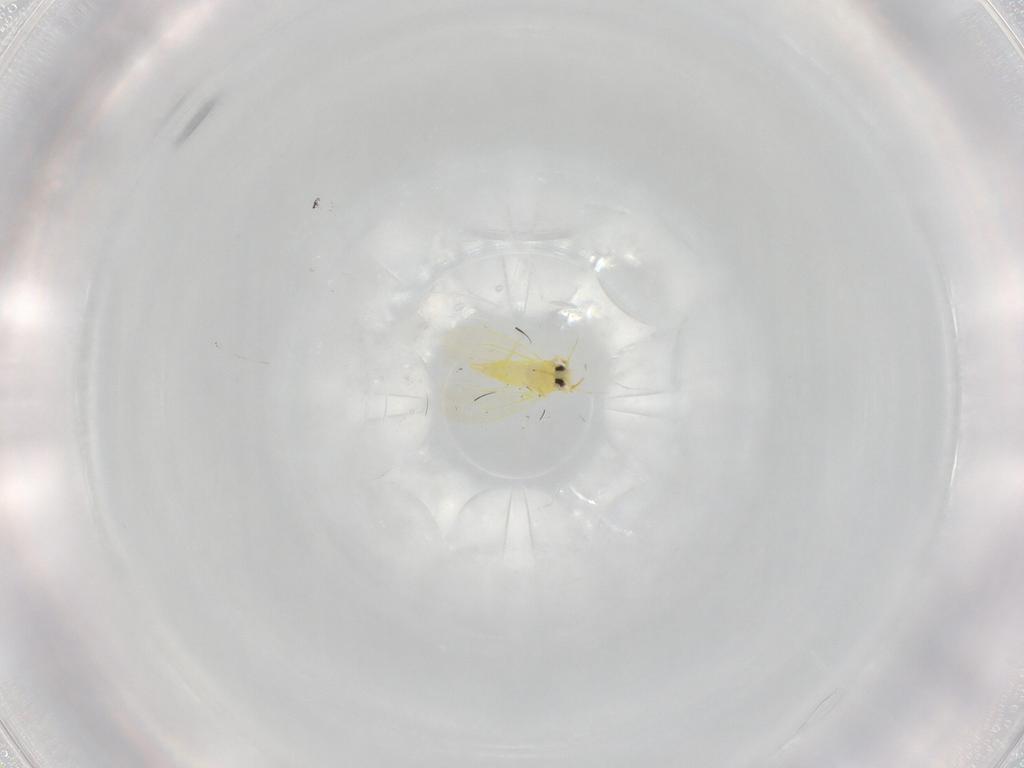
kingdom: Animalia
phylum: Arthropoda
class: Insecta
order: Hemiptera
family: Aleyrodidae
